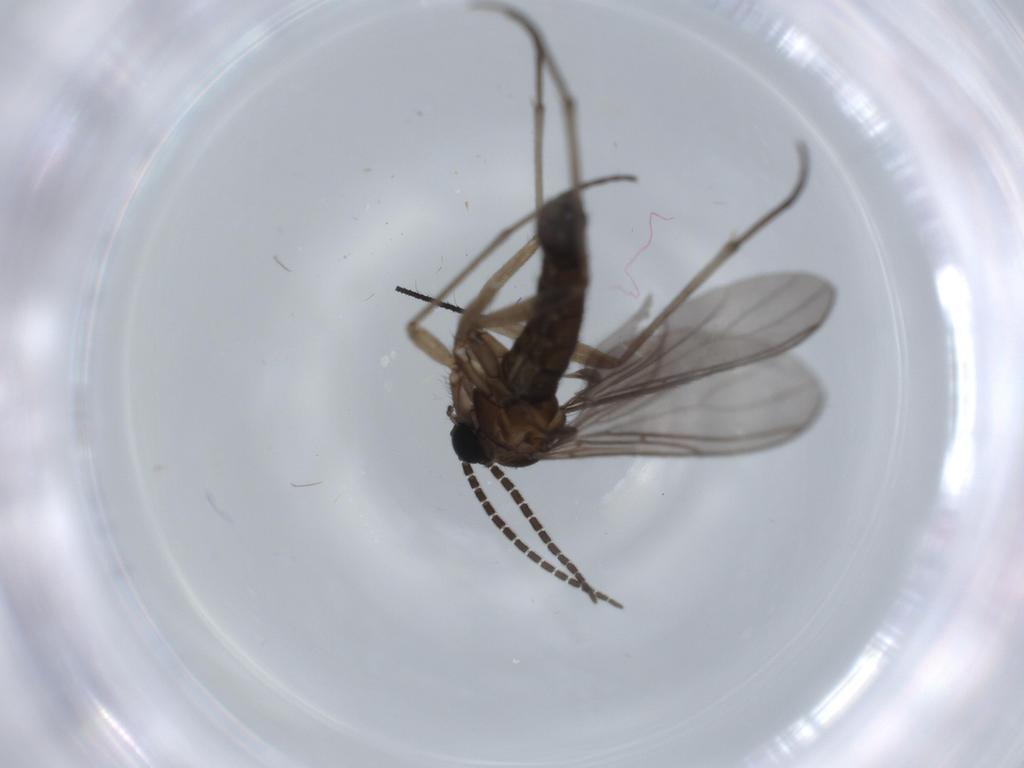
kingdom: Animalia
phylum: Arthropoda
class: Insecta
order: Diptera
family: Sciaridae
